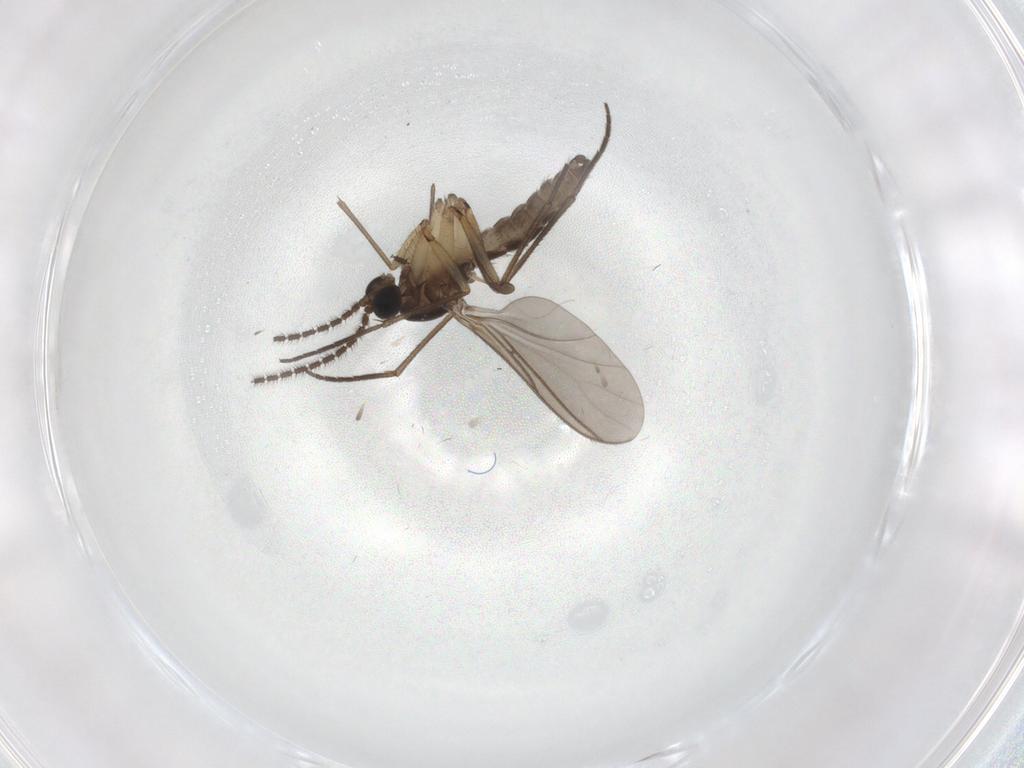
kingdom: Animalia
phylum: Arthropoda
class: Insecta
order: Diptera
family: Sciaridae
